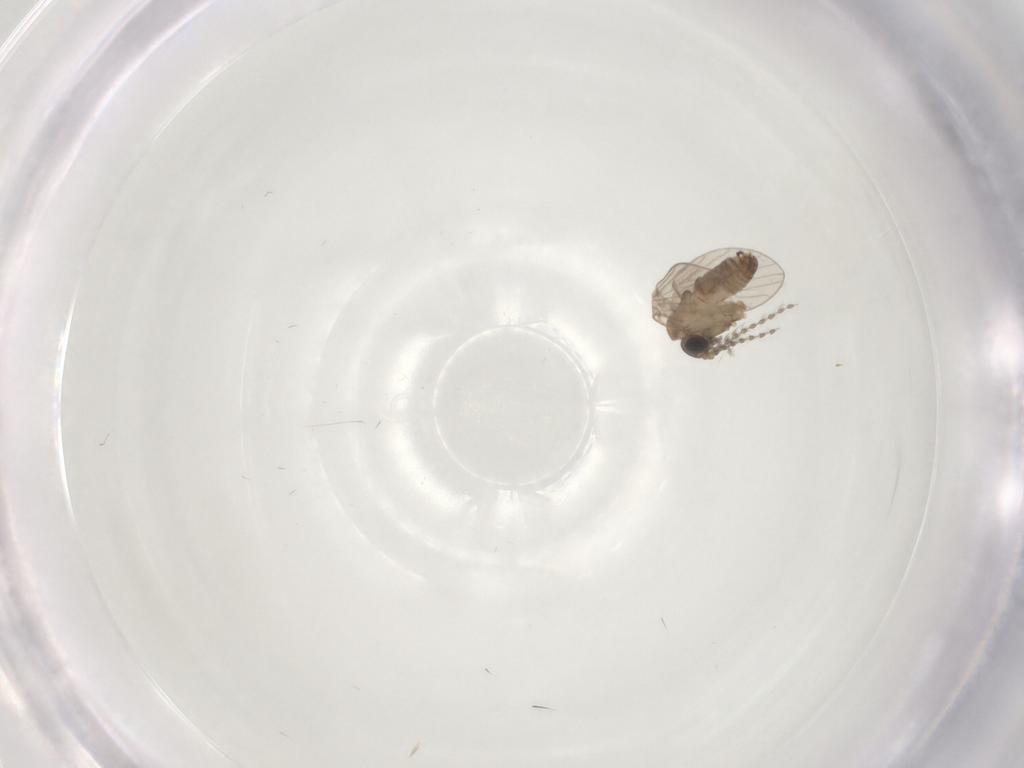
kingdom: Animalia
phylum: Arthropoda
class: Insecta
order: Diptera
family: Psychodidae
